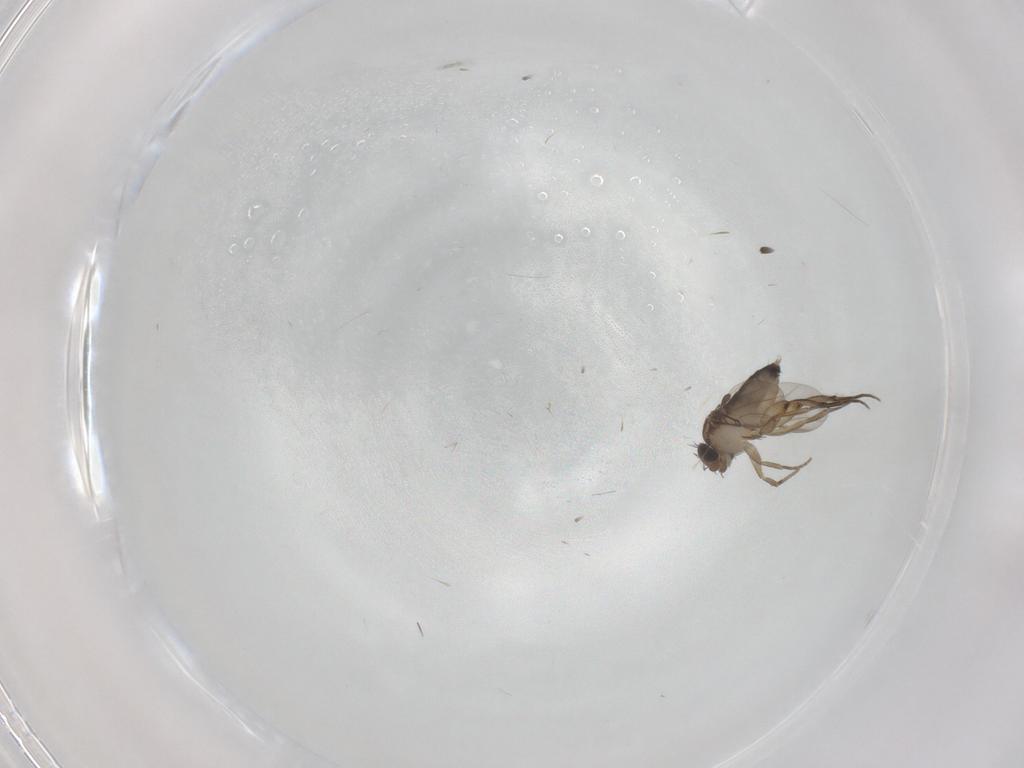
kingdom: Animalia
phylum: Arthropoda
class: Insecta
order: Diptera
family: Phoridae
